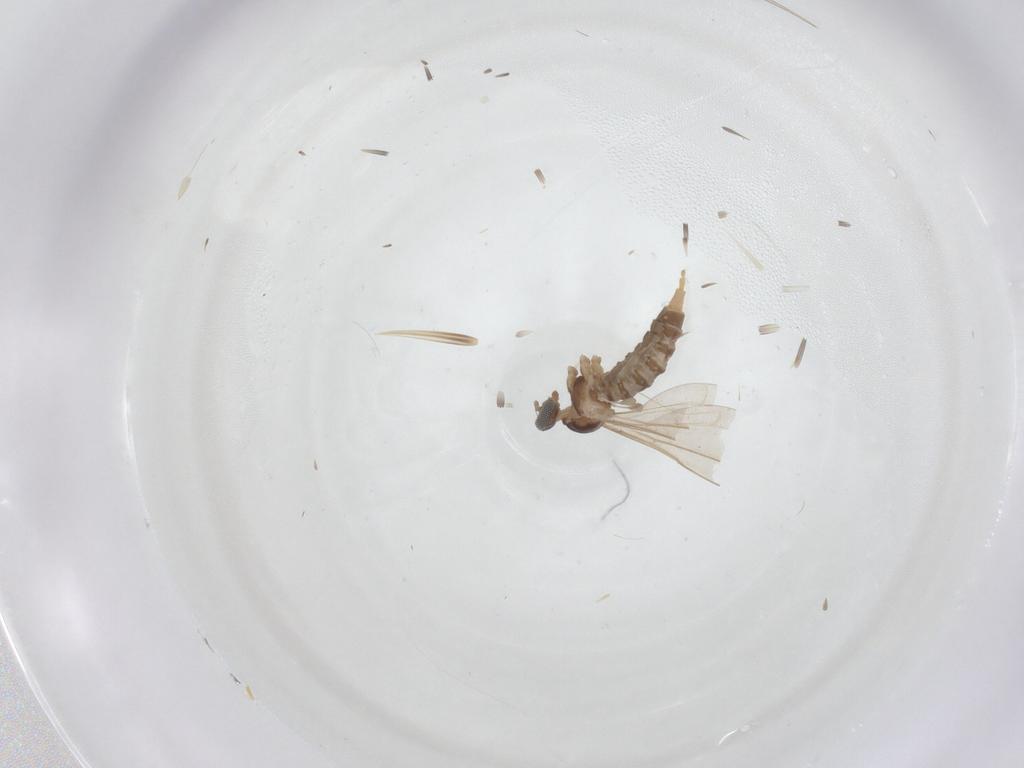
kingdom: Animalia
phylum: Arthropoda
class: Insecta
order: Diptera
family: Cecidomyiidae
